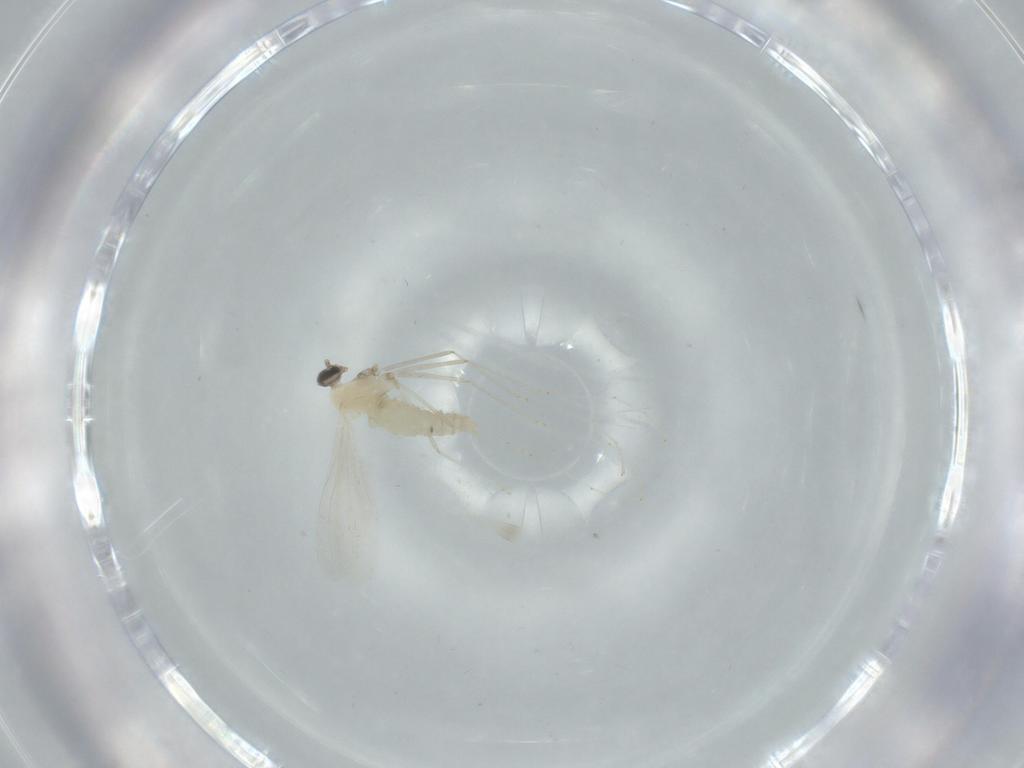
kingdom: Animalia
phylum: Arthropoda
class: Insecta
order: Diptera
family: Cecidomyiidae
